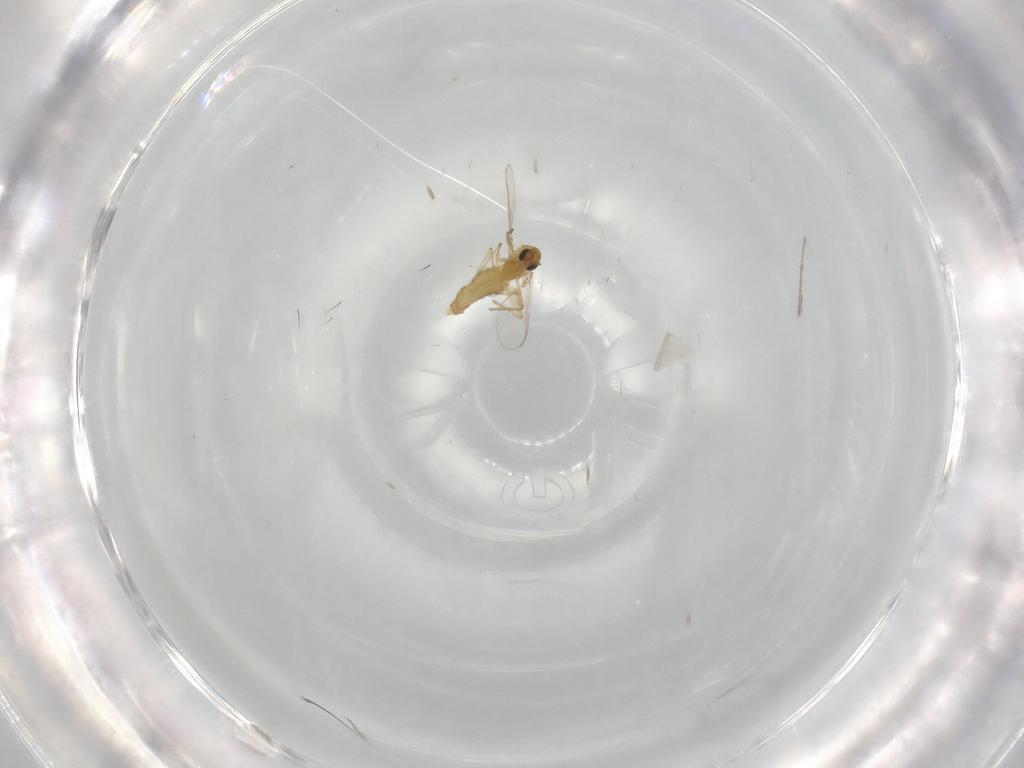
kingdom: Animalia
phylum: Arthropoda
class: Insecta
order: Diptera
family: Chironomidae
